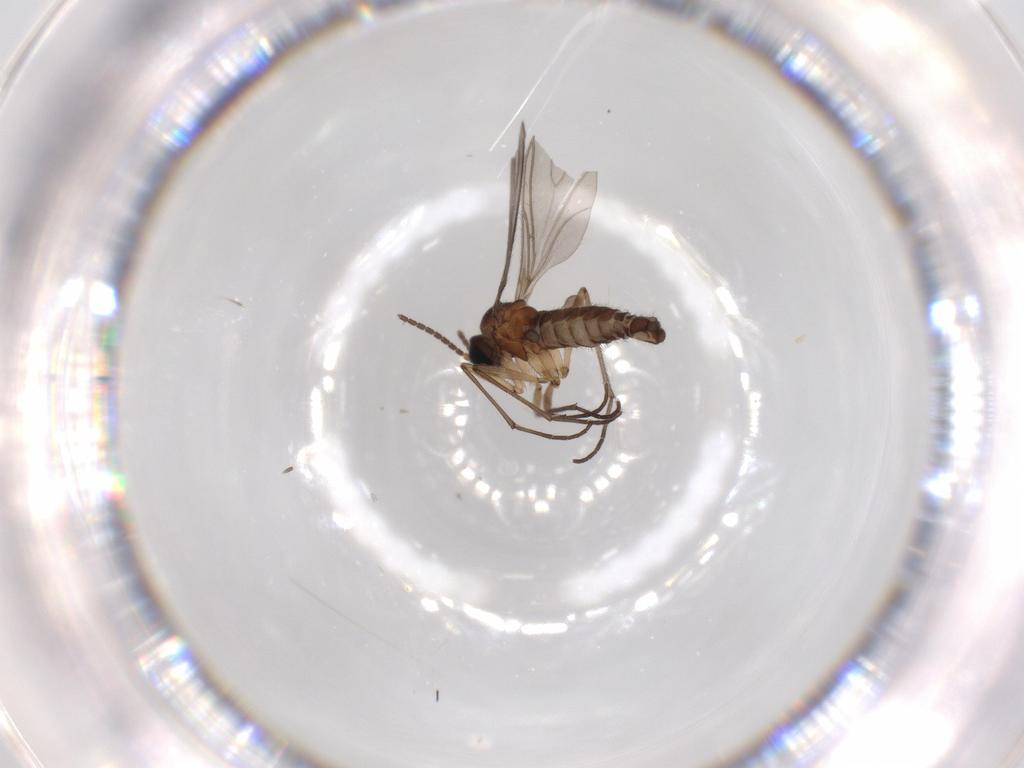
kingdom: Animalia
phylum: Arthropoda
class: Insecta
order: Diptera
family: Sciaridae
